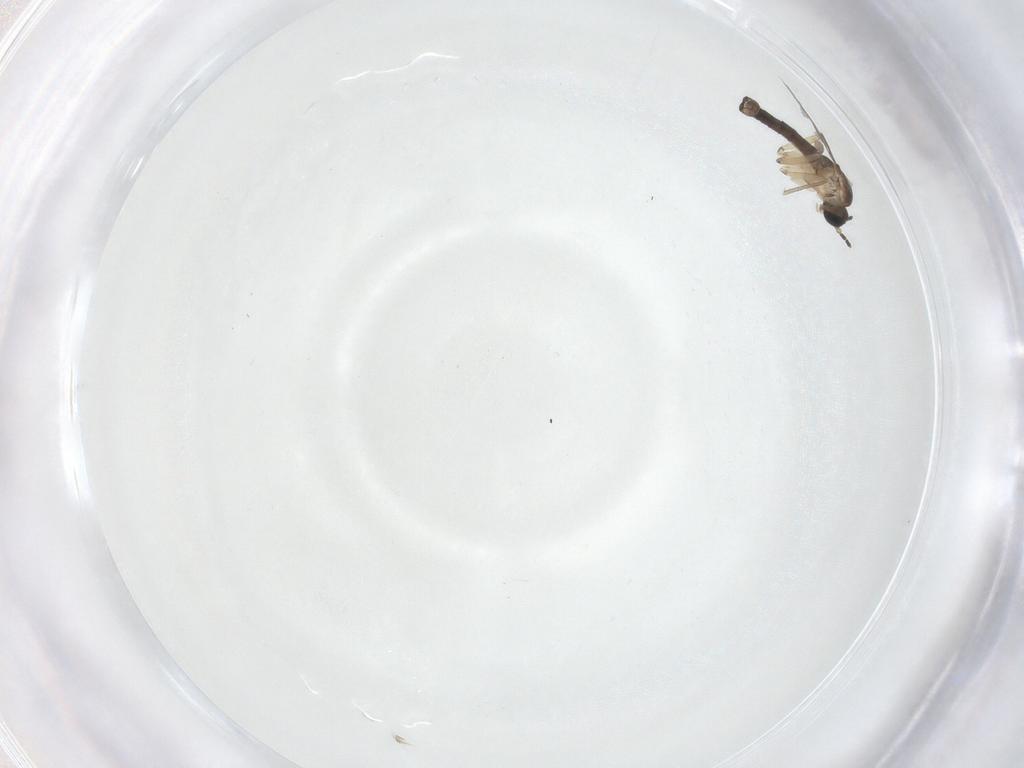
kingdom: Animalia
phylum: Arthropoda
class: Insecta
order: Diptera
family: Sciaridae
